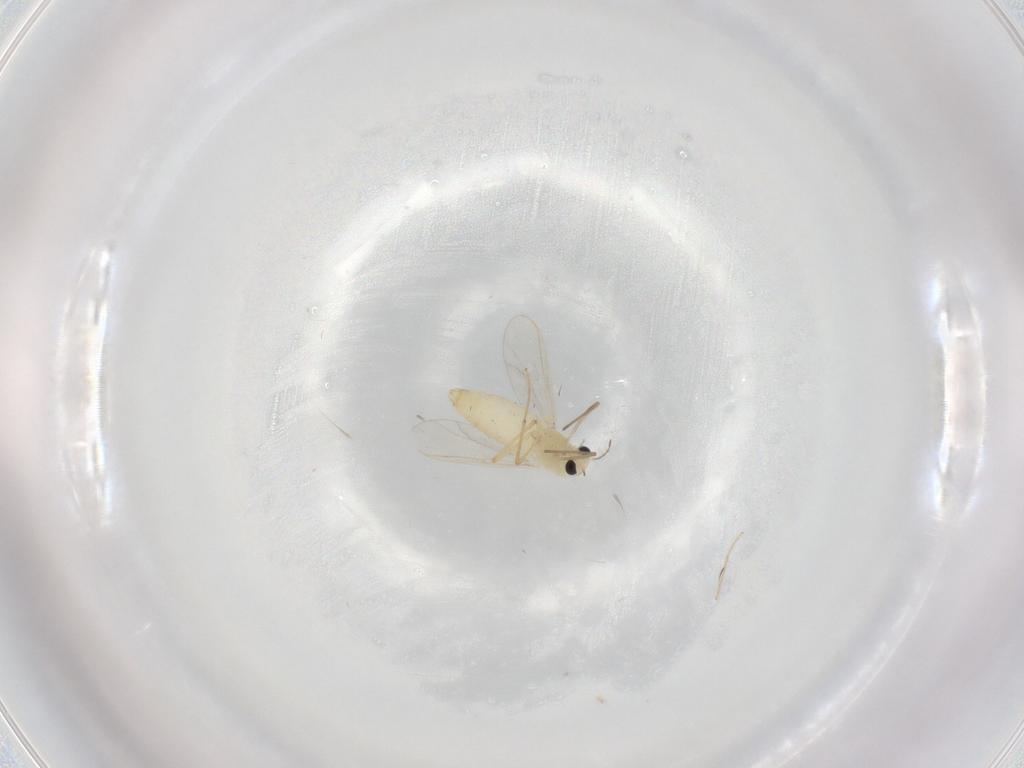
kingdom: Animalia
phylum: Arthropoda
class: Insecta
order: Diptera
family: Chironomidae
